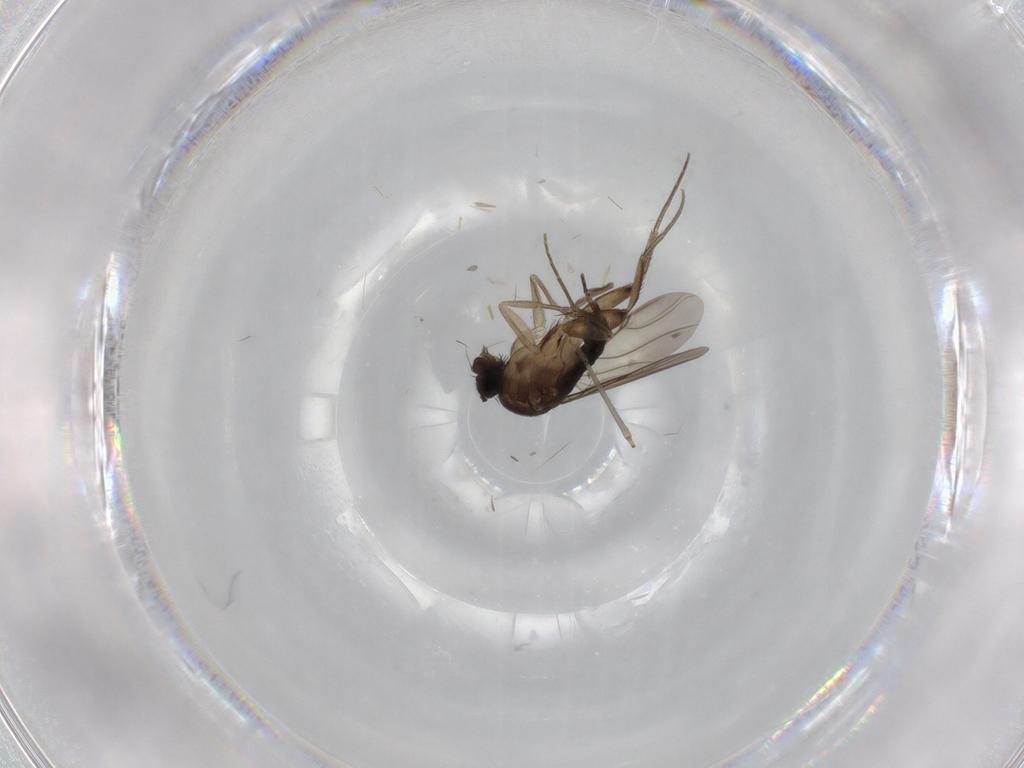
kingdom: Animalia
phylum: Arthropoda
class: Insecta
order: Diptera
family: Phoridae
